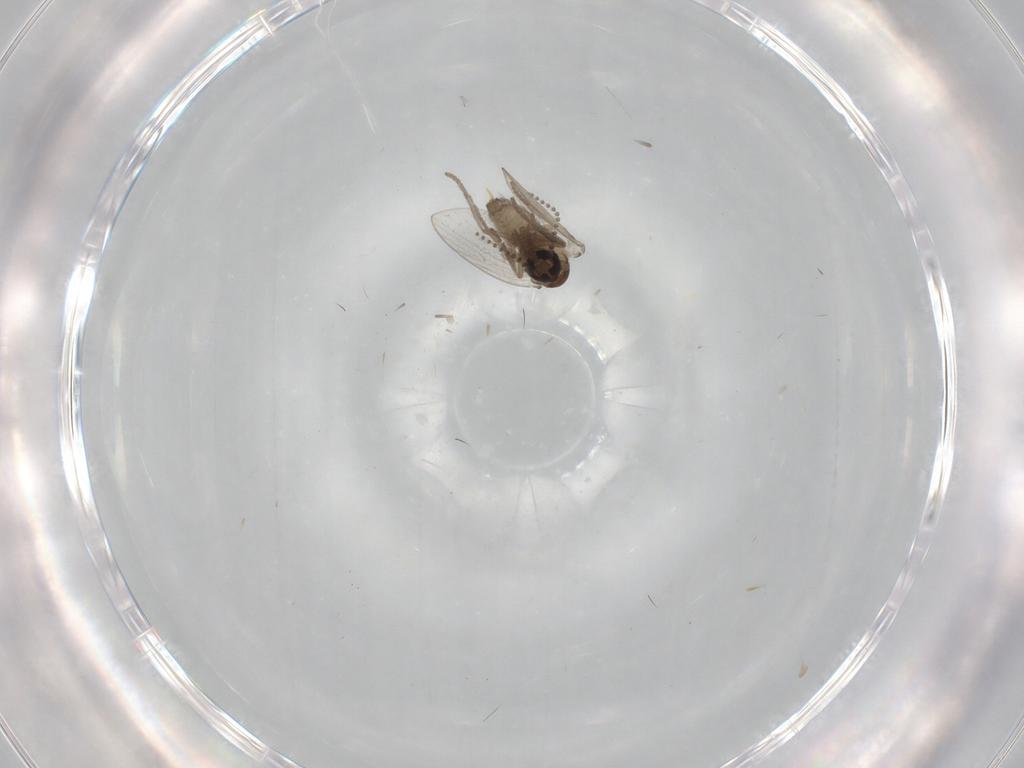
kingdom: Animalia
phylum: Arthropoda
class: Insecta
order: Diptera
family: Psychodidae
